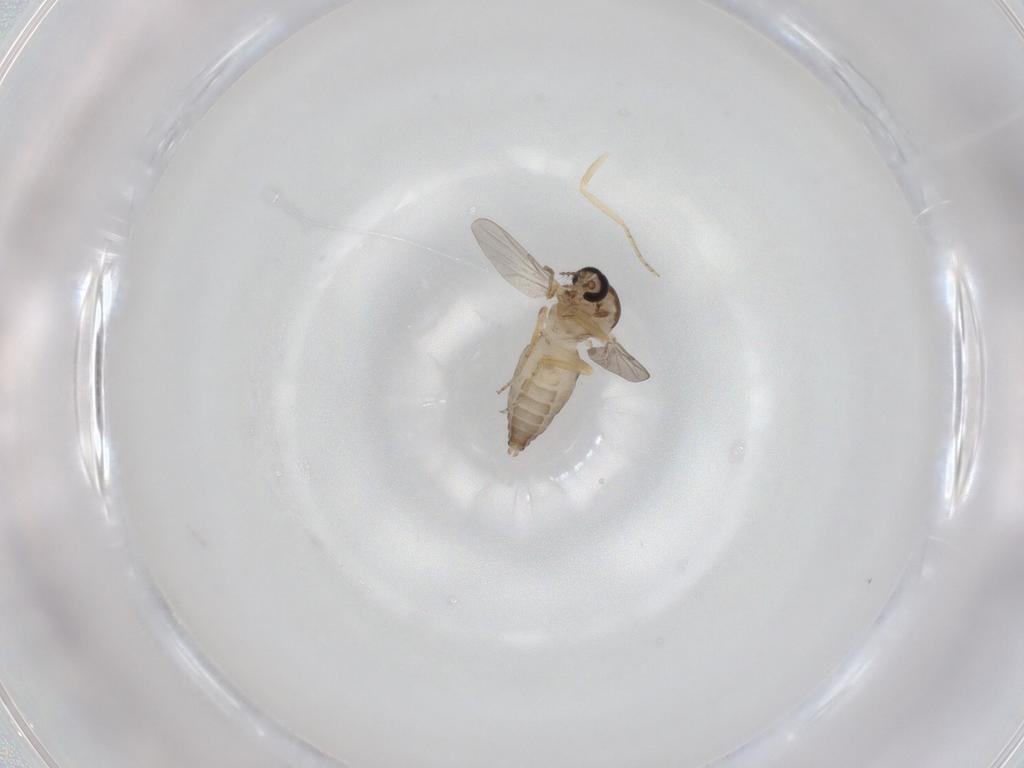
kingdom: Animalia
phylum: Arthropoda
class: Insecta
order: Diptera
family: Ceratopogonidae
